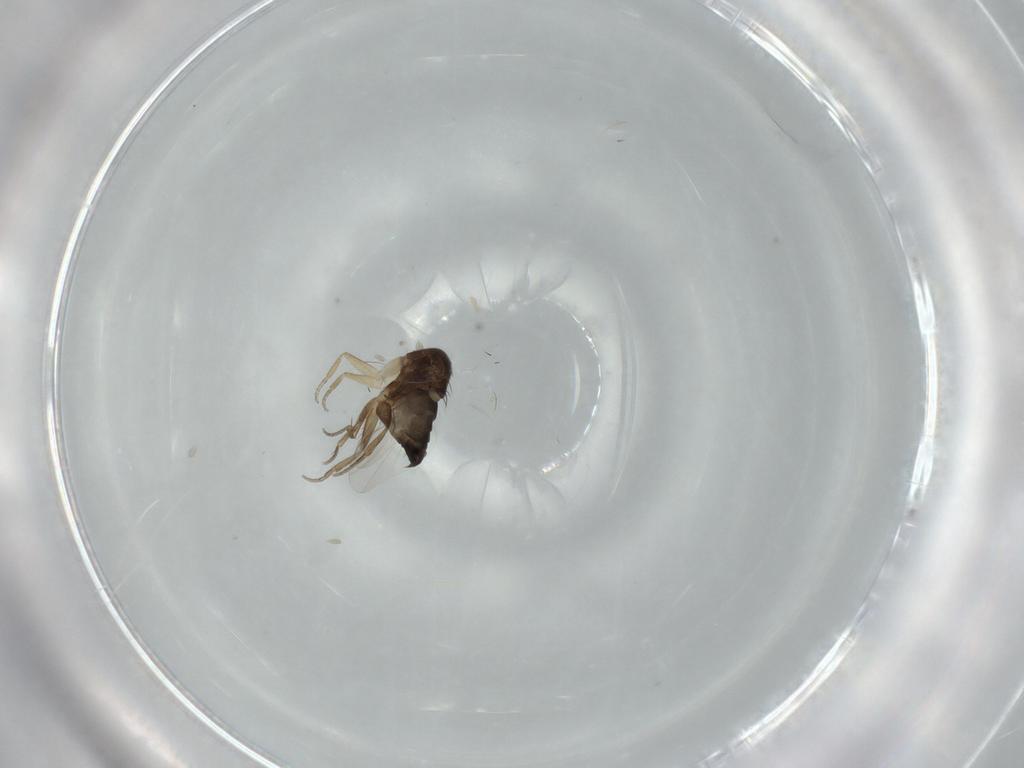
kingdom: Animalia
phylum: Arthropoda
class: Insecta
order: Diptera
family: Phoridae
